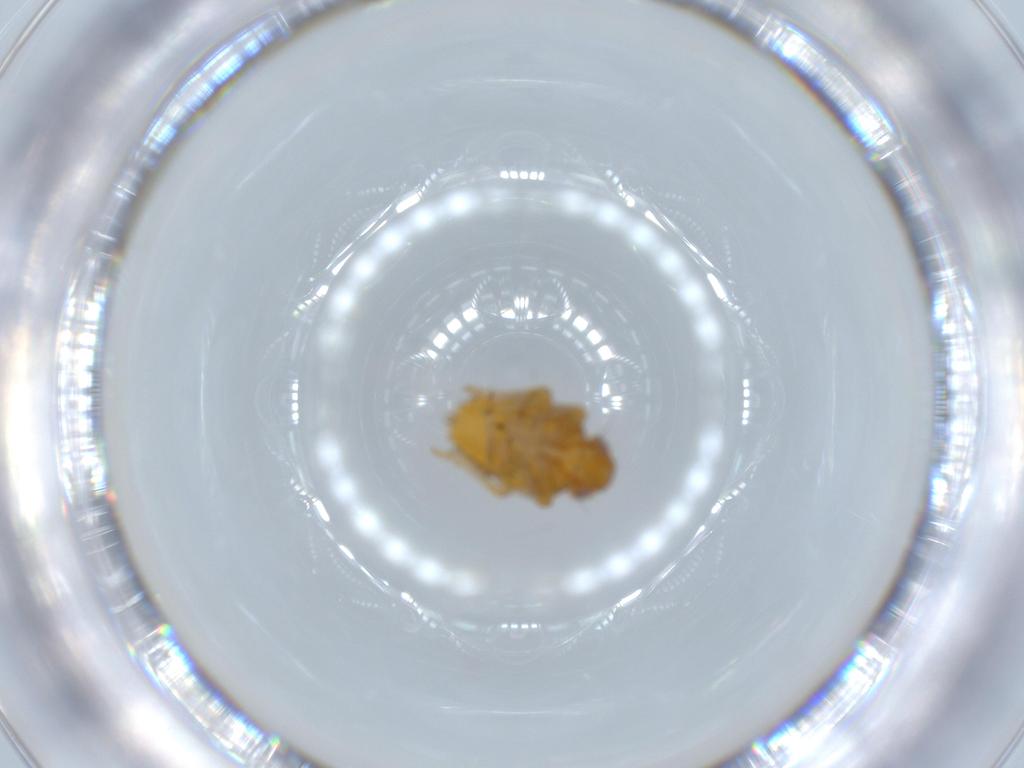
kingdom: Animalia
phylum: Arthropoda
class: Insecta
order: Hemiptera
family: Issidae
